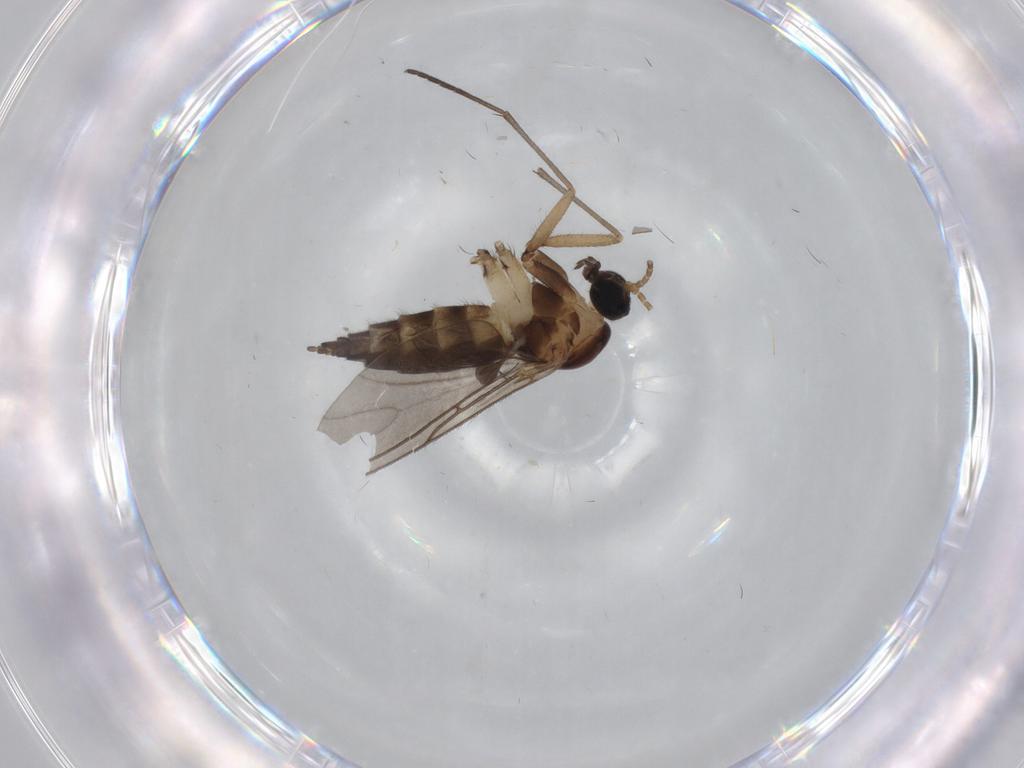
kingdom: Animalia
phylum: Arthropoda
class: Insecta
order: Diptera
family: Sciaridae
